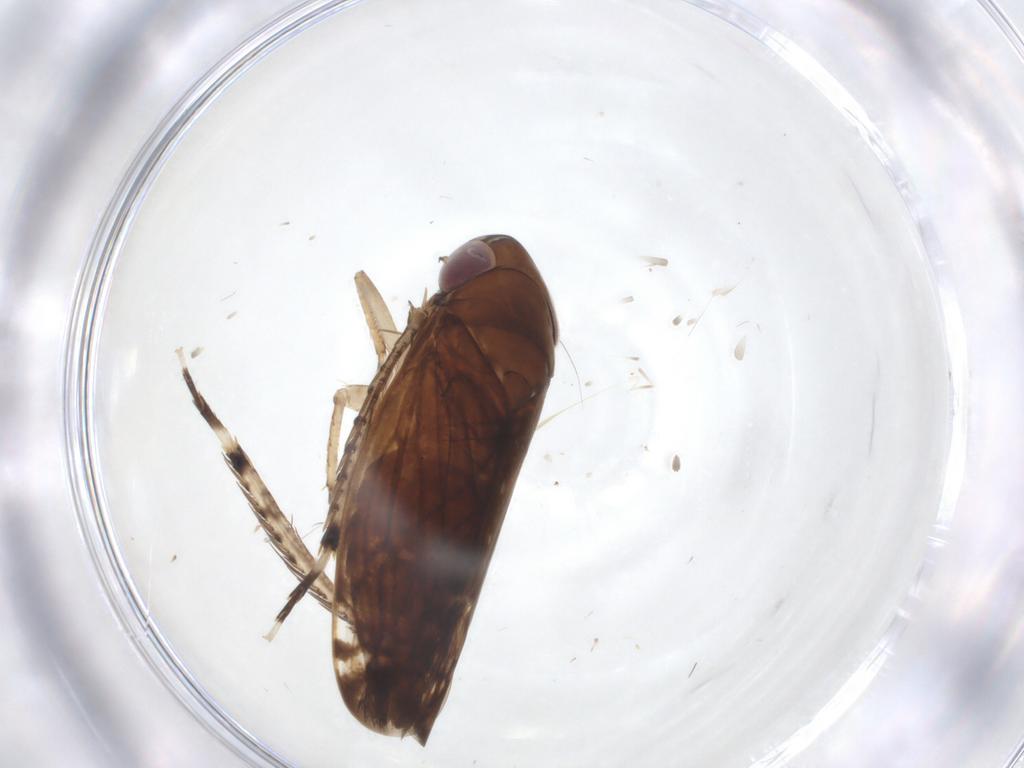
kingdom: Animalia
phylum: Arthropoda
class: Insecta
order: Hemiptera
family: Cicadellidae
